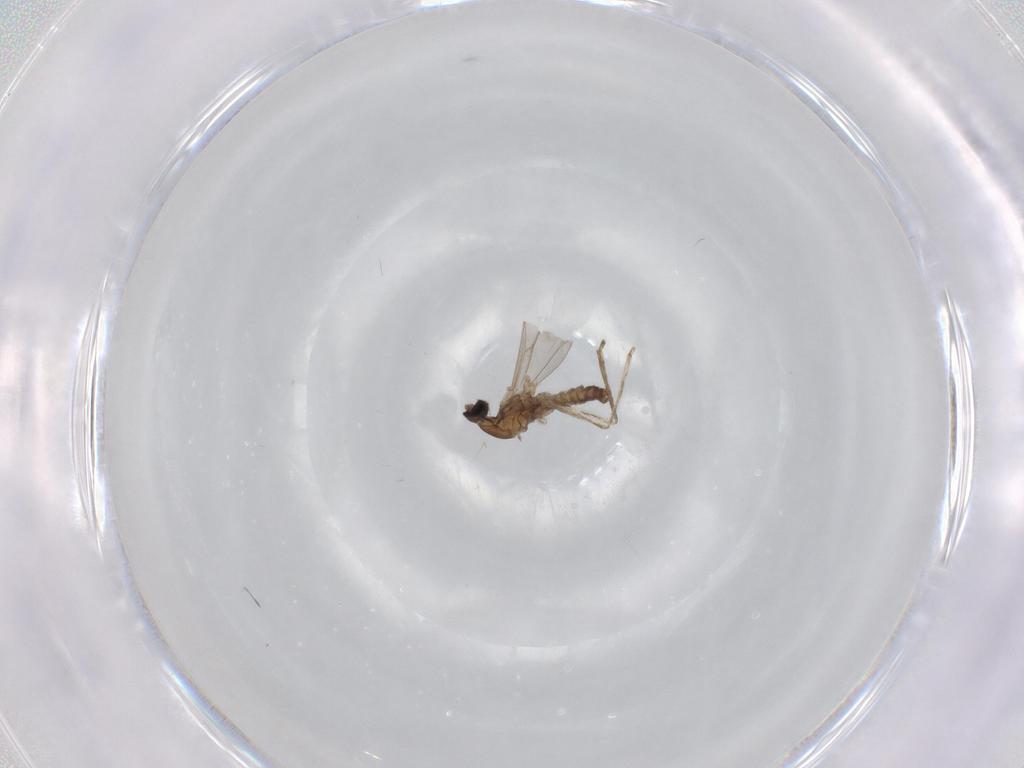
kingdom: Animalia
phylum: Arthropoda
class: Insecta
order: Diptera
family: Cecidomyiidae
